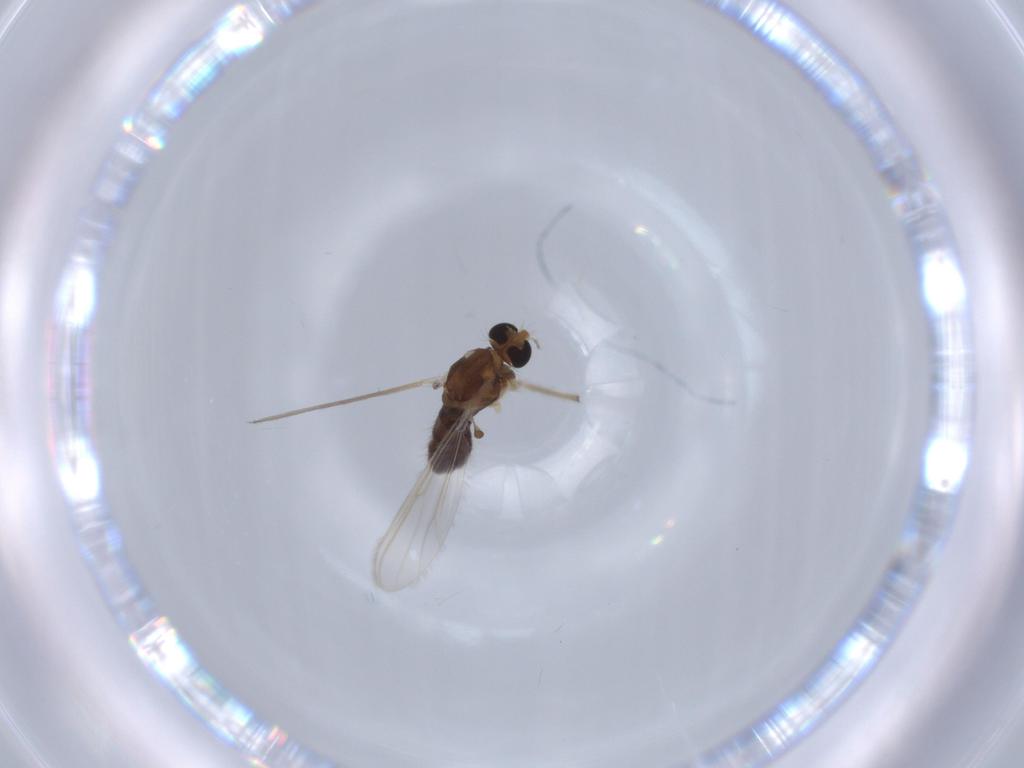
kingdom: Animalia
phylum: Arthropoda
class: Insecta
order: Diptera
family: Chironomidae
